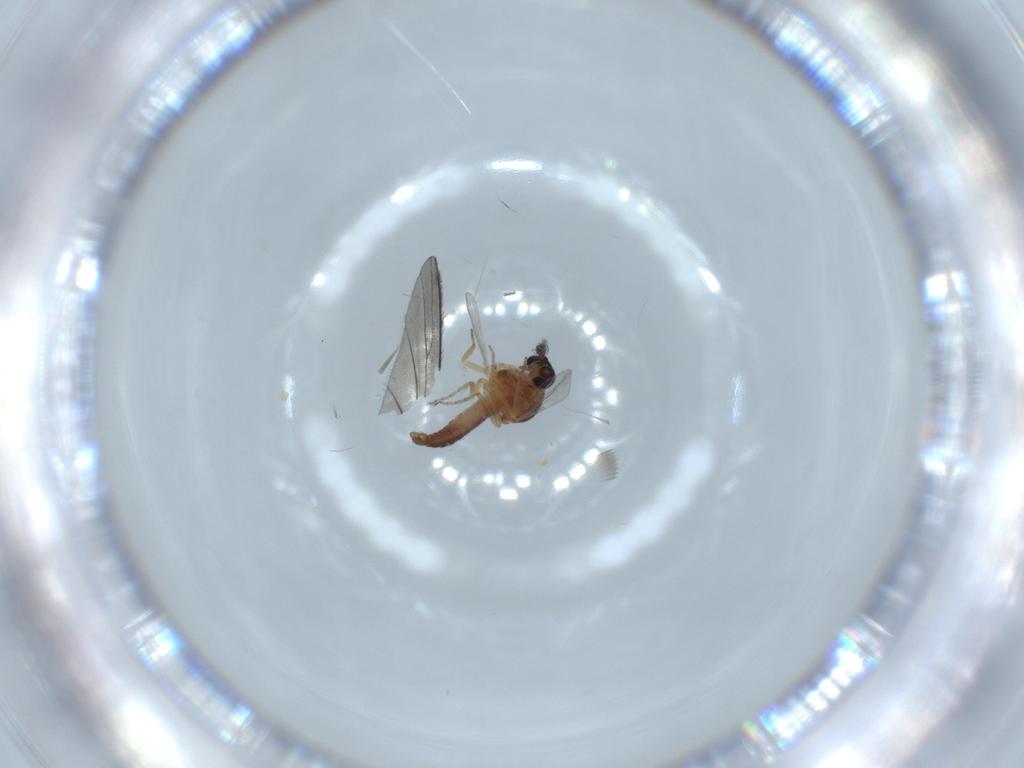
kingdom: Animalia
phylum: Arthropoda
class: Insecta
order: Diptera
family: Ceratopogonidae
